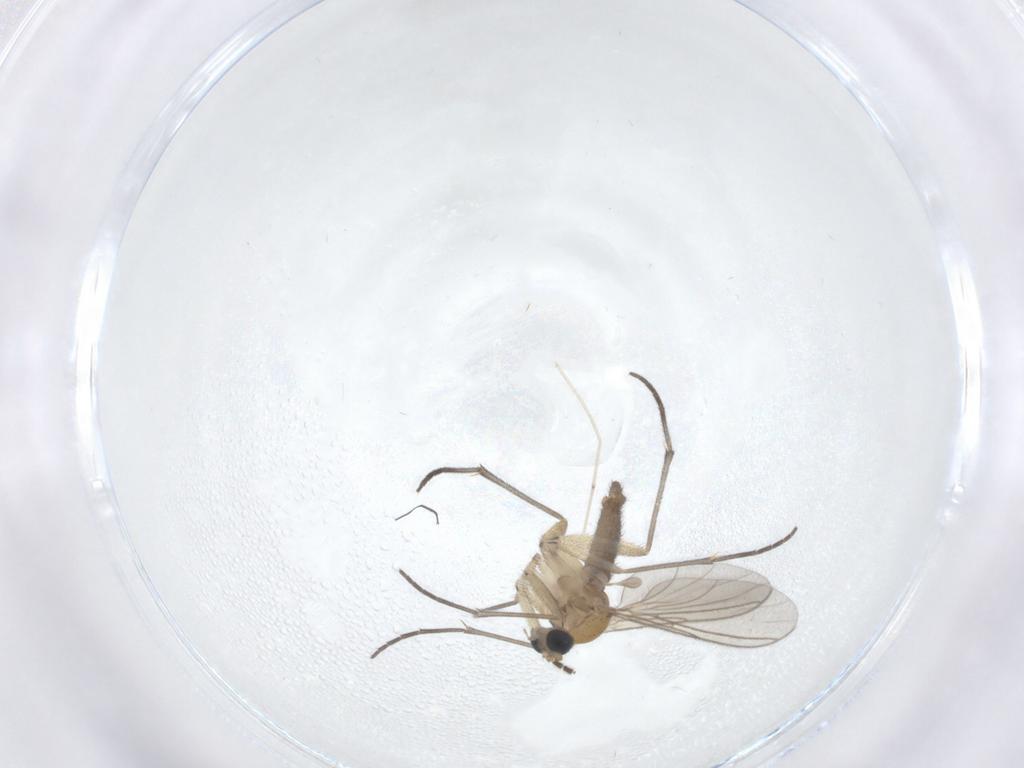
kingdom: Animalia
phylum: Arthropoda
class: Insecta
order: Diptera
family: Sciaridae
